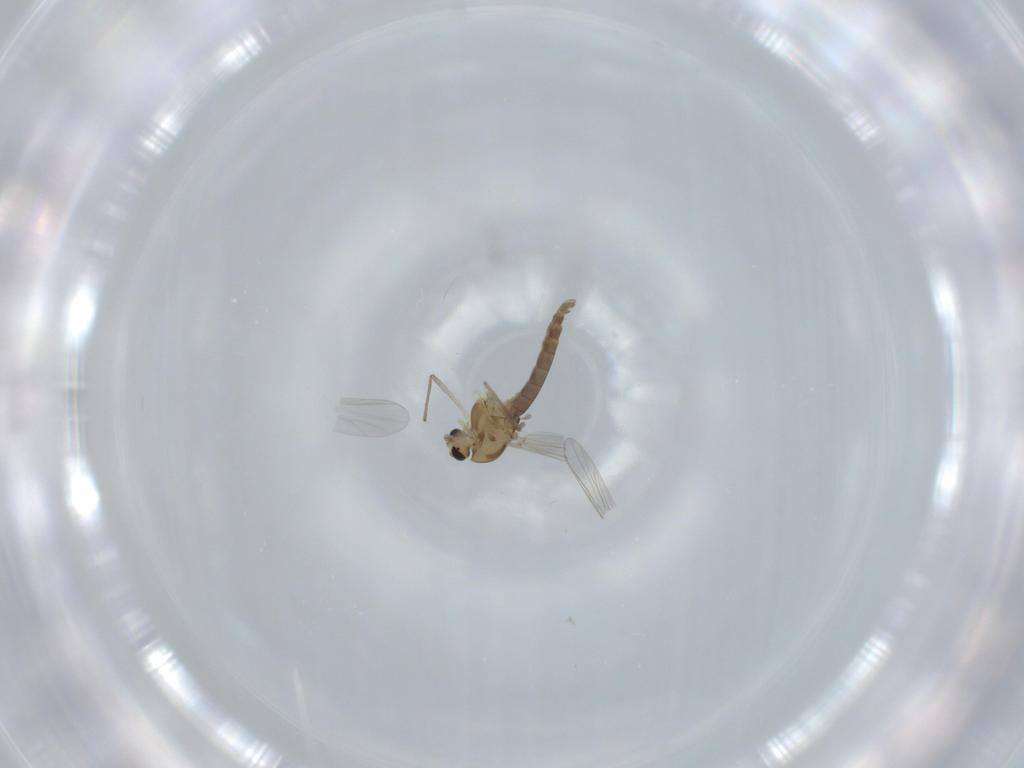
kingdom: Animalia
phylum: Arthropoda
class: Insecta
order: Diptera
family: Chironomidae
